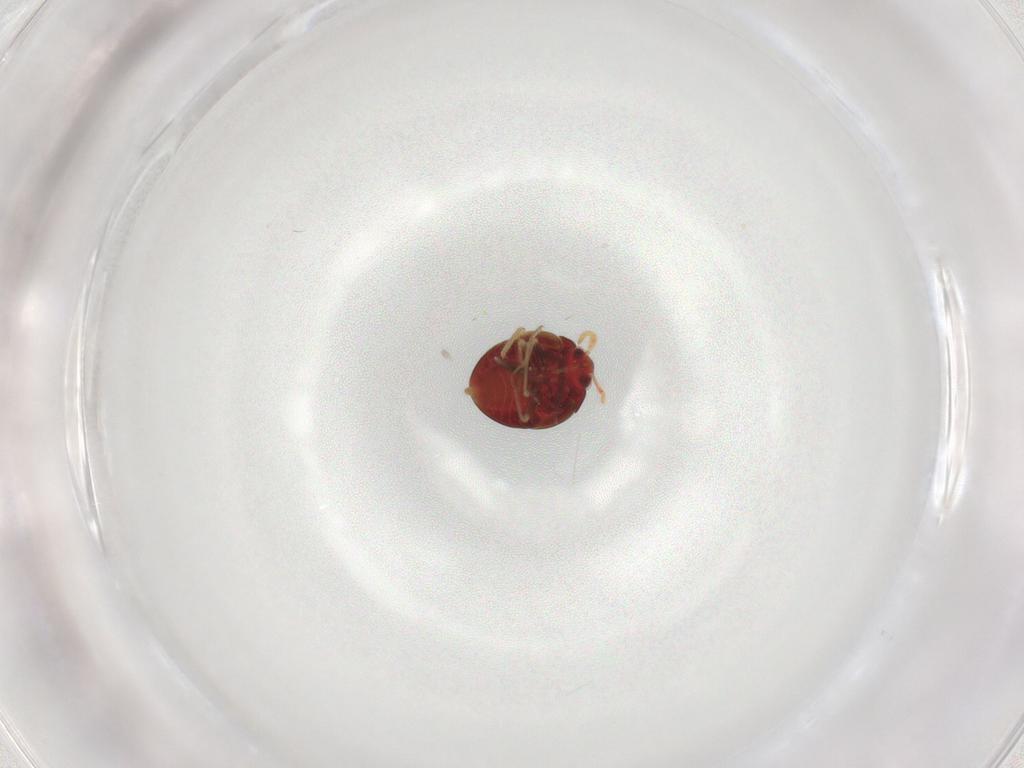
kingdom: Animalia
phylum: Arthropoda
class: Insecta
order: Hemiptera
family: Anthocoridae
